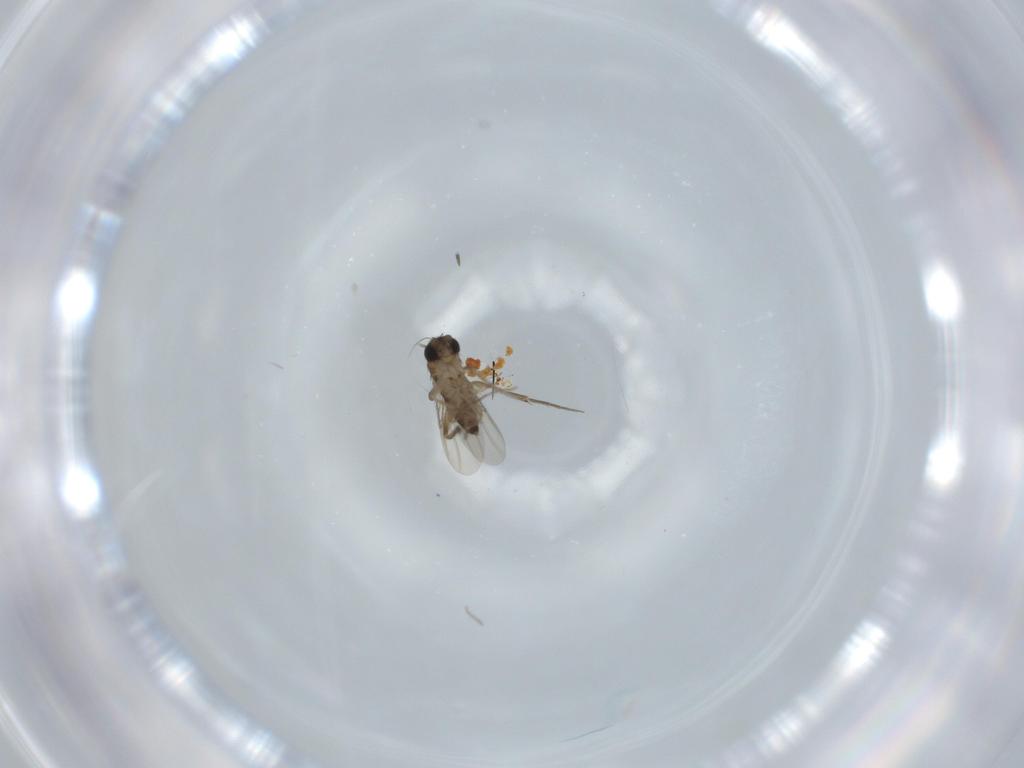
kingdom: Animalia
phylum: Arthropoda
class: Insecta
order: Diptera
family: Phoridae
